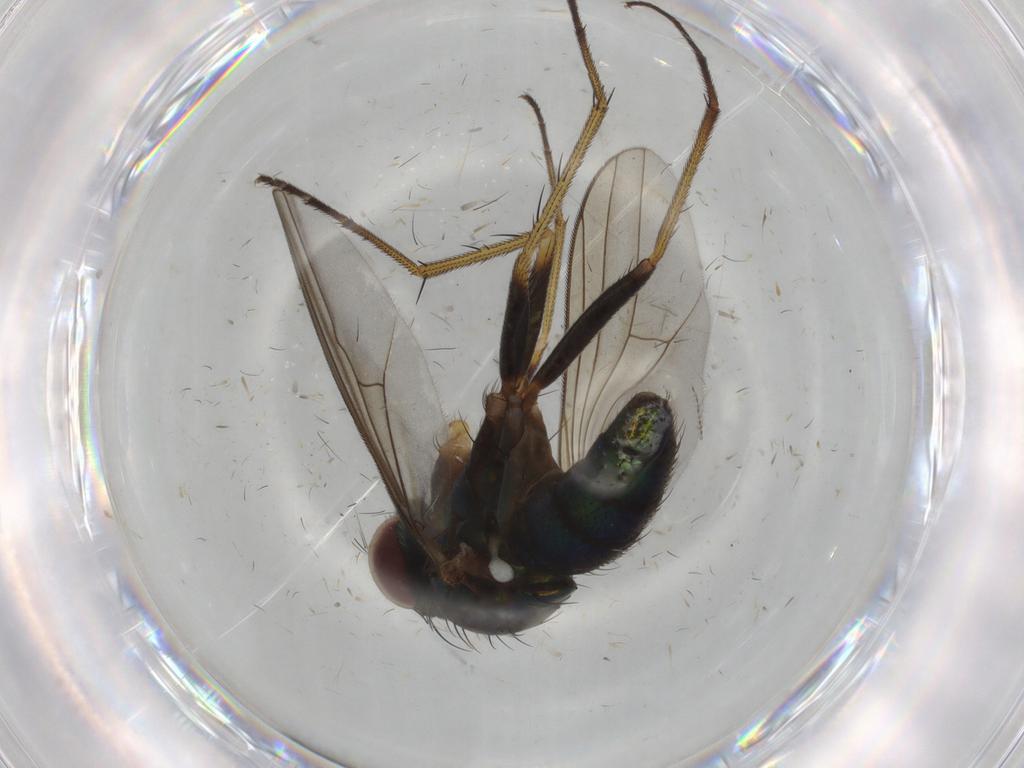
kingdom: Animalia
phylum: Arthropoda
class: Insecta
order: Diptera
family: Dolichopodidae
